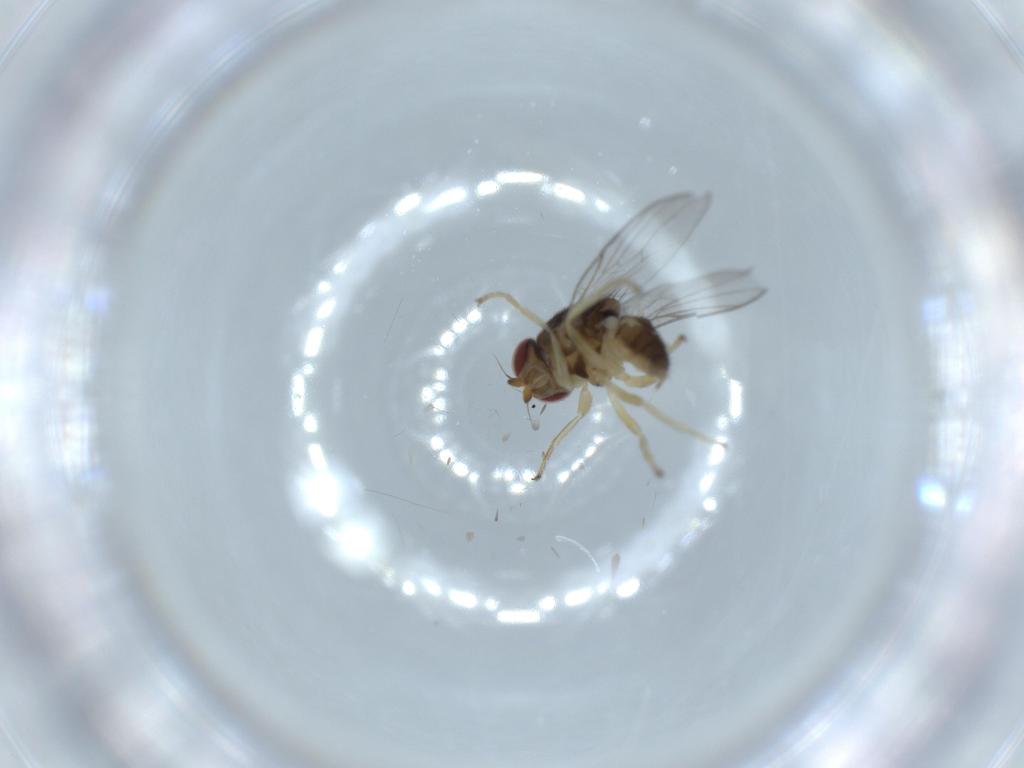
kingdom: Animalia
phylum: Arthropoda
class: Insecta
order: Diptera
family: Chloropidae
